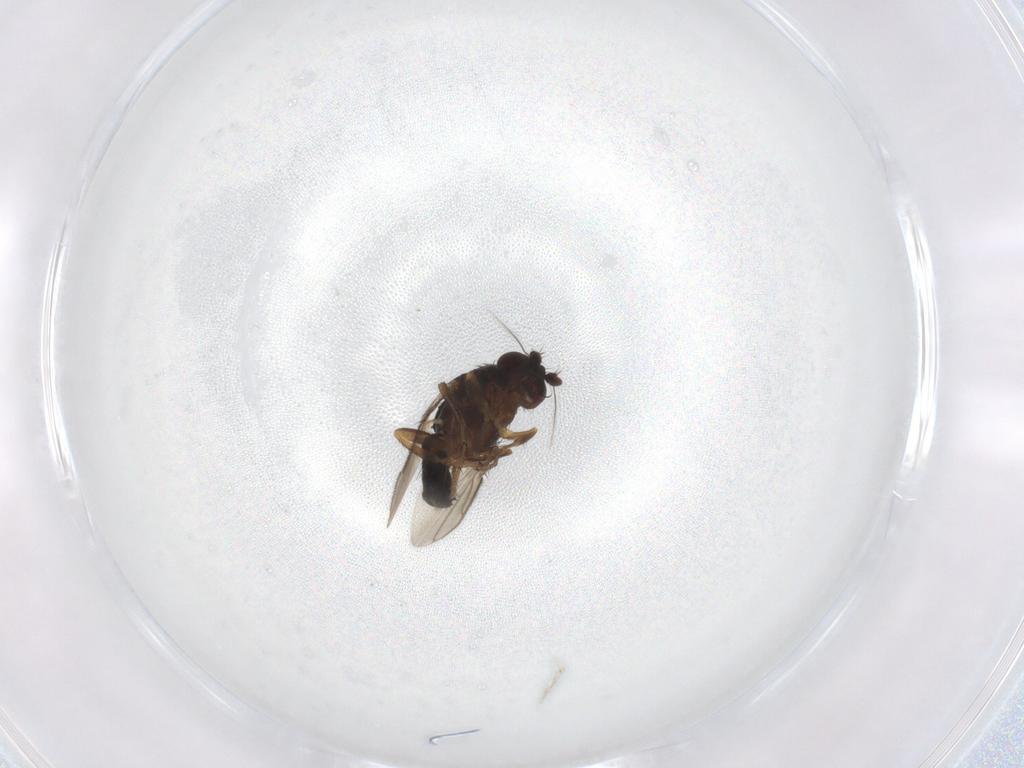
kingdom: Animalia
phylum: Arthropoda
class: Insecta
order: Diptera
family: Sphaeroceridae
